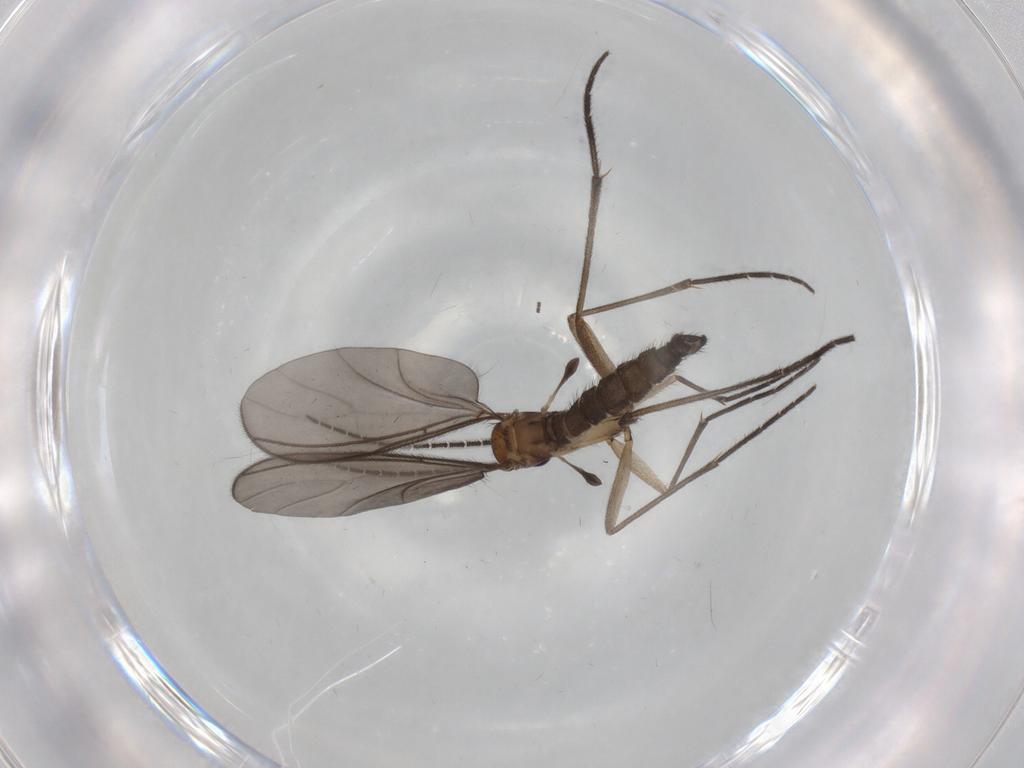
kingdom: Animalia
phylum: Arthropoda
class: Insecta
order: Diptera
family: Sciaridae
